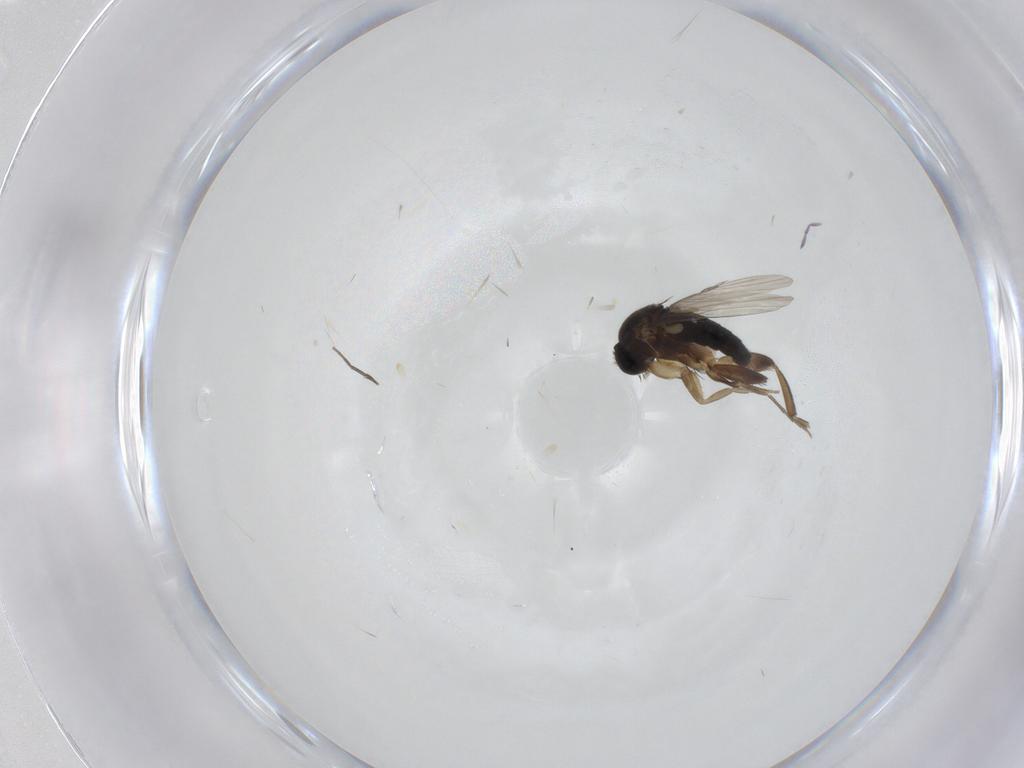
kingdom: Animalia
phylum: Arthropoda
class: Insecta
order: Diptera
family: Phoridae
